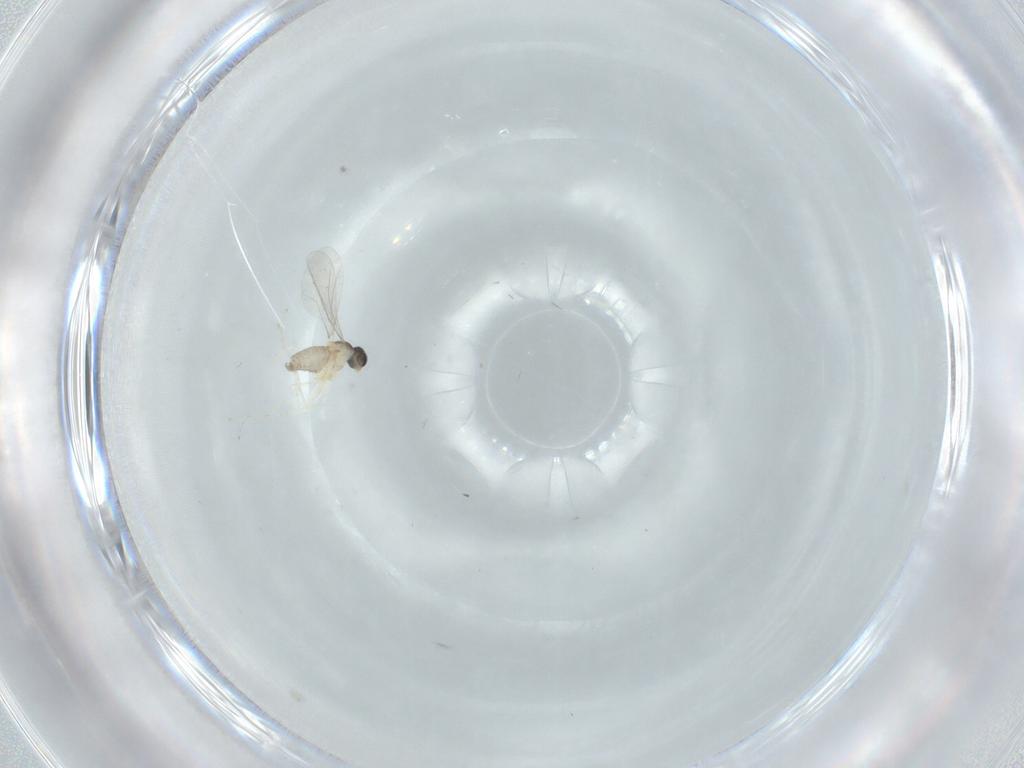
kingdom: Animalia
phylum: Arthropoda
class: Insecta
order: Diptera
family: Cecidomyiidae
